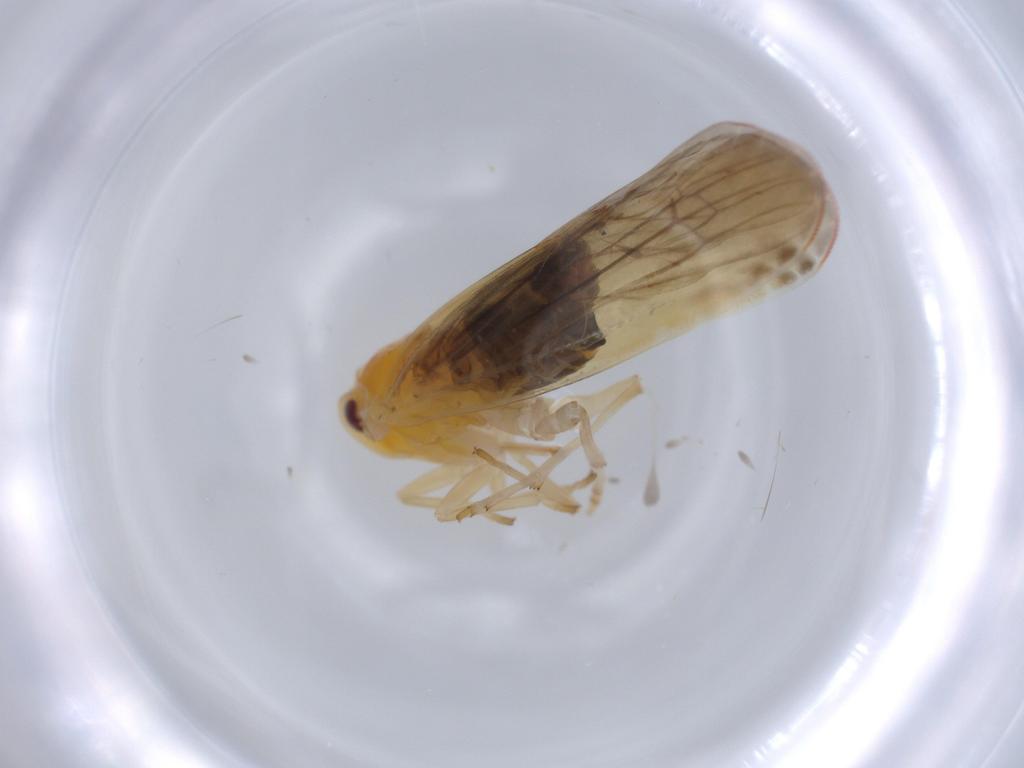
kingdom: Animalia
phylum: Arthropoda
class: Insecta
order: Hemiptera
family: Derbidae
